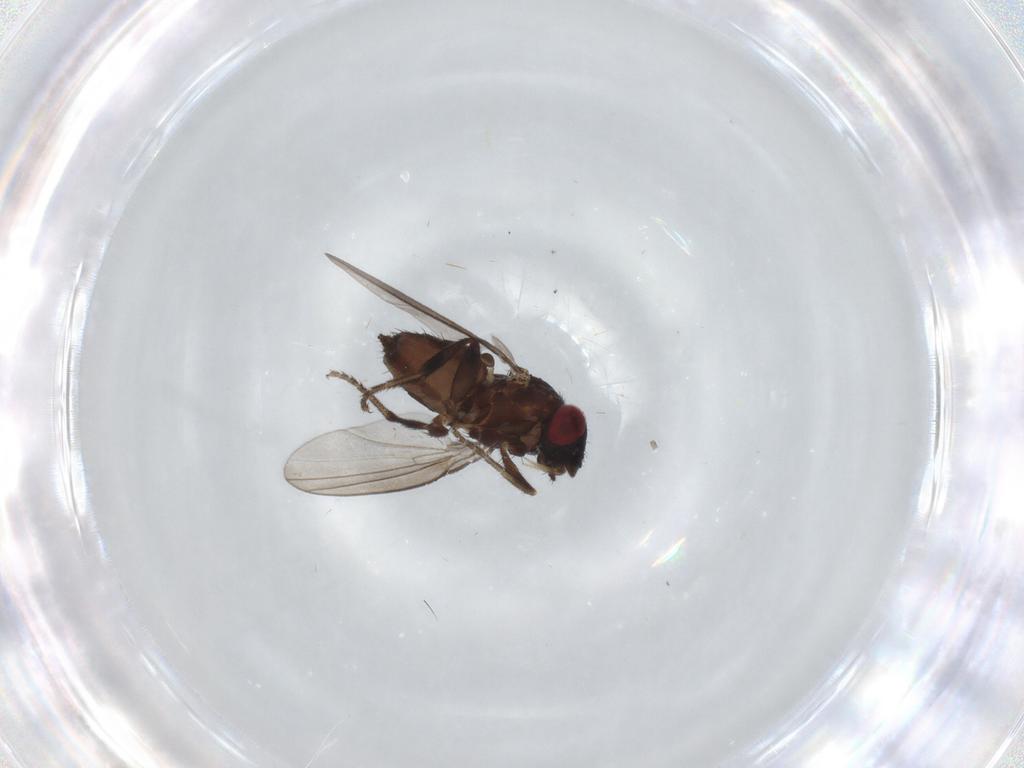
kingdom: Animalia
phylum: Arthropoda
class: Insecta
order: Diptera
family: Milichiidae
